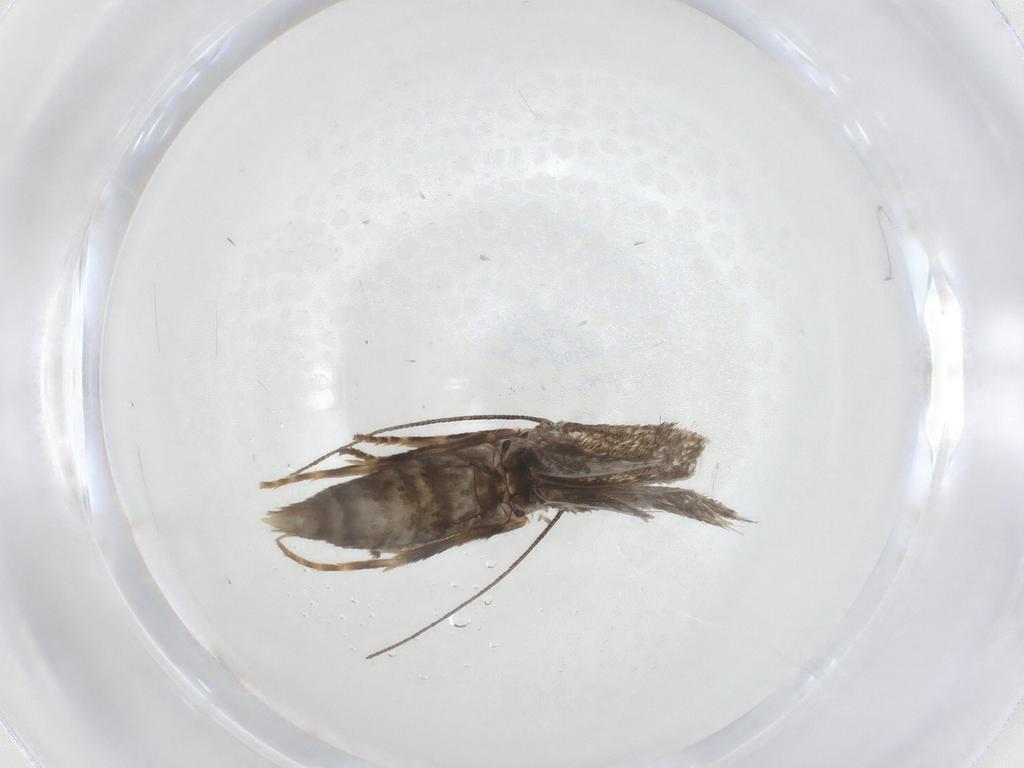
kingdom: Animalia
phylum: Arthropoda
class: Insecta
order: Lepidoptera
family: Elachistidae
